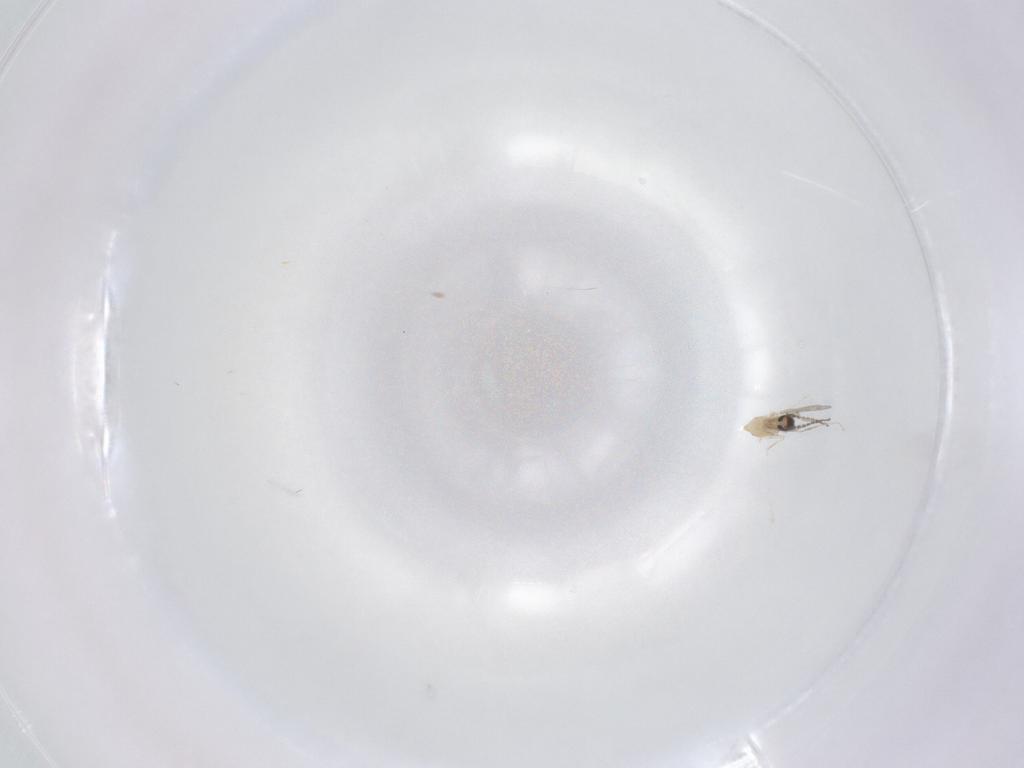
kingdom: Animalia
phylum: Arthropoda
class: Insecta
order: Diptera
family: Cecidomyiidae
